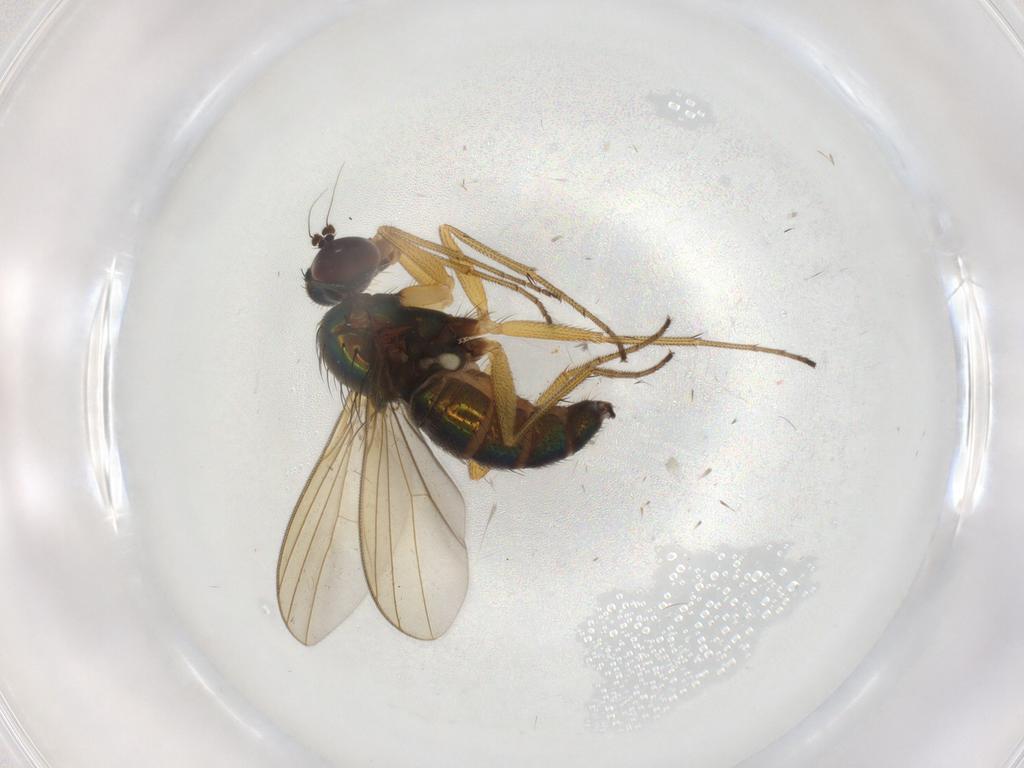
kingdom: Animalia
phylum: Arthropoda
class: Insecta
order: Diptera
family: Dolichopodidae
